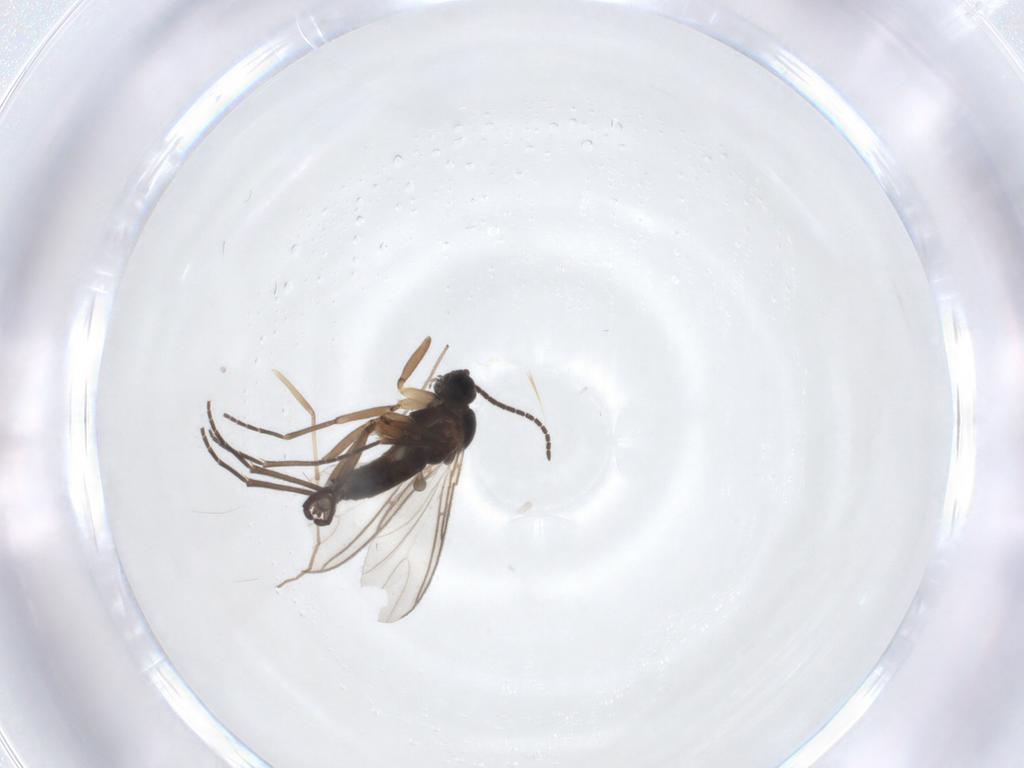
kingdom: Animalia
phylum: Arthropoda
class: Insecta
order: Diptera
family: Sciaridae
